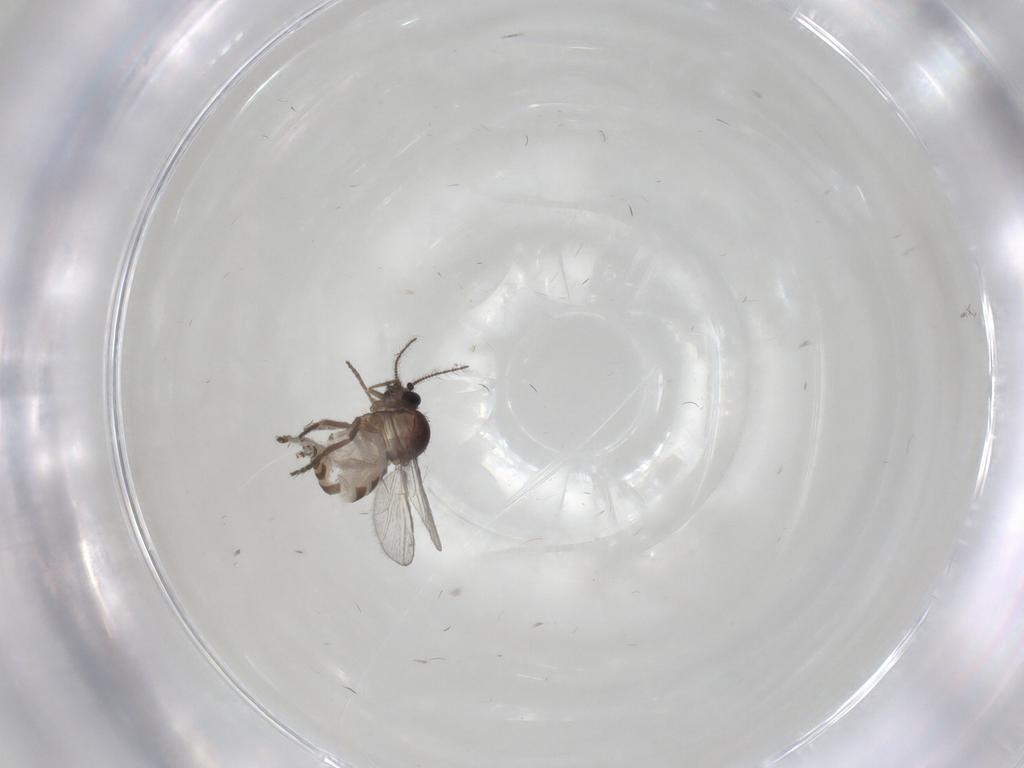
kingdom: Animalia
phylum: Arthropoda
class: Insecta
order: Diptera
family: Ceratopogonidae
